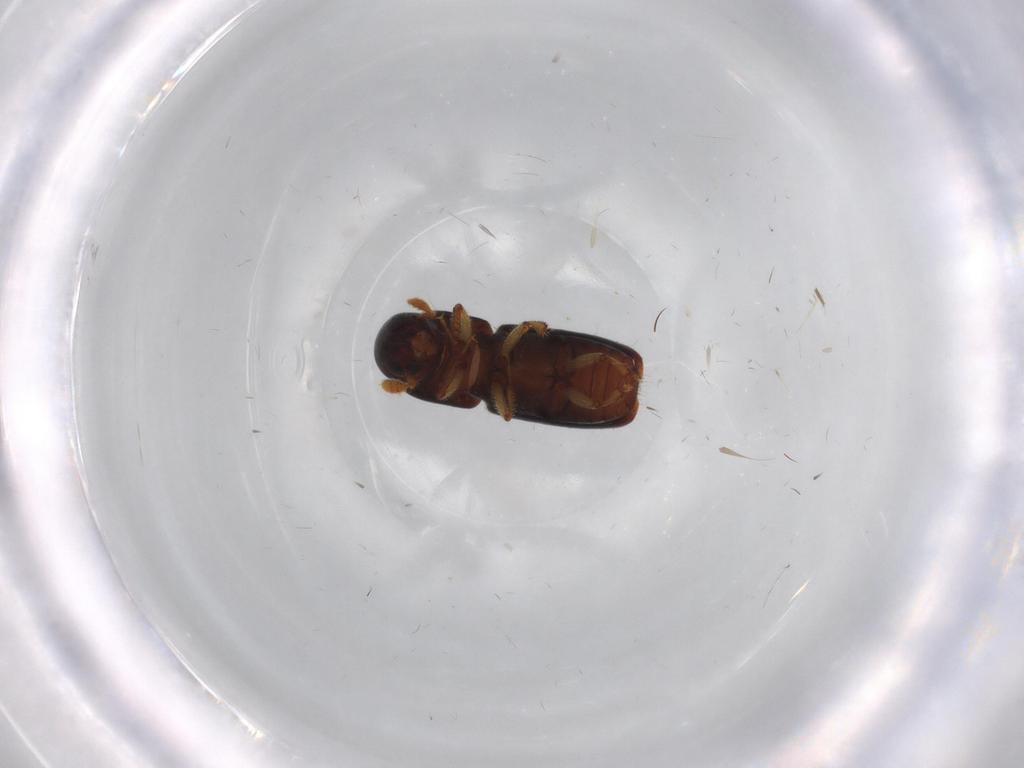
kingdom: Animalia
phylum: Arthropoda
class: Insecta
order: Coleoptera
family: Curculionidae
